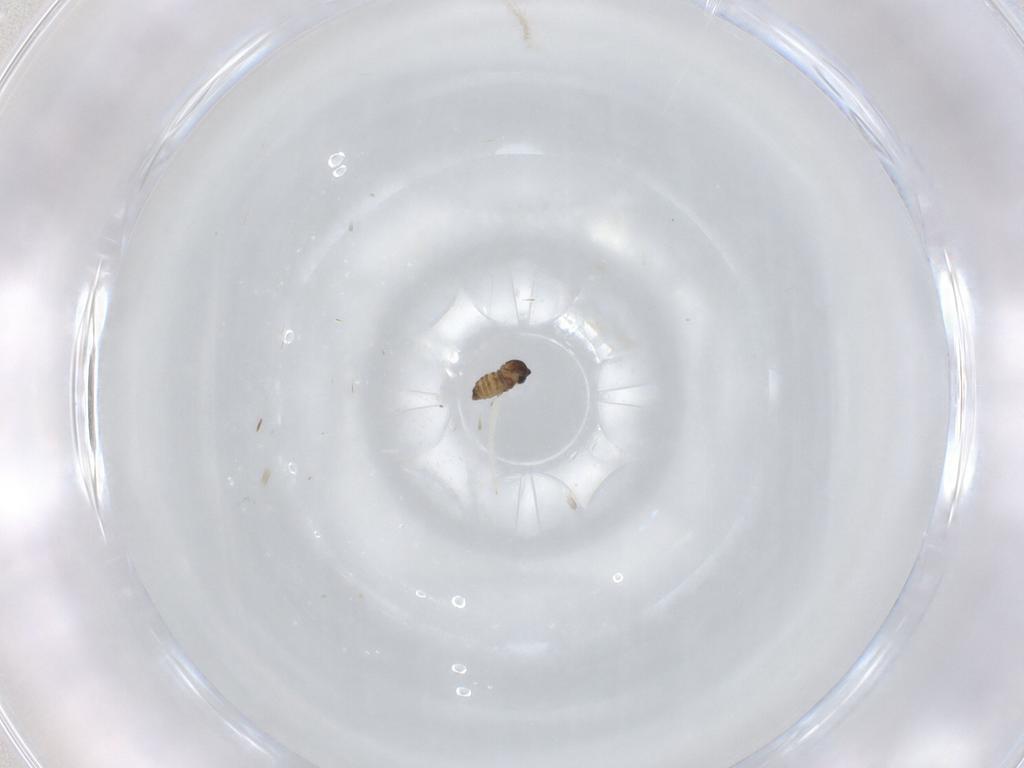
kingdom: Animalia
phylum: Arthropoda
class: Insecta
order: Diptera
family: Cecidomyiidae
